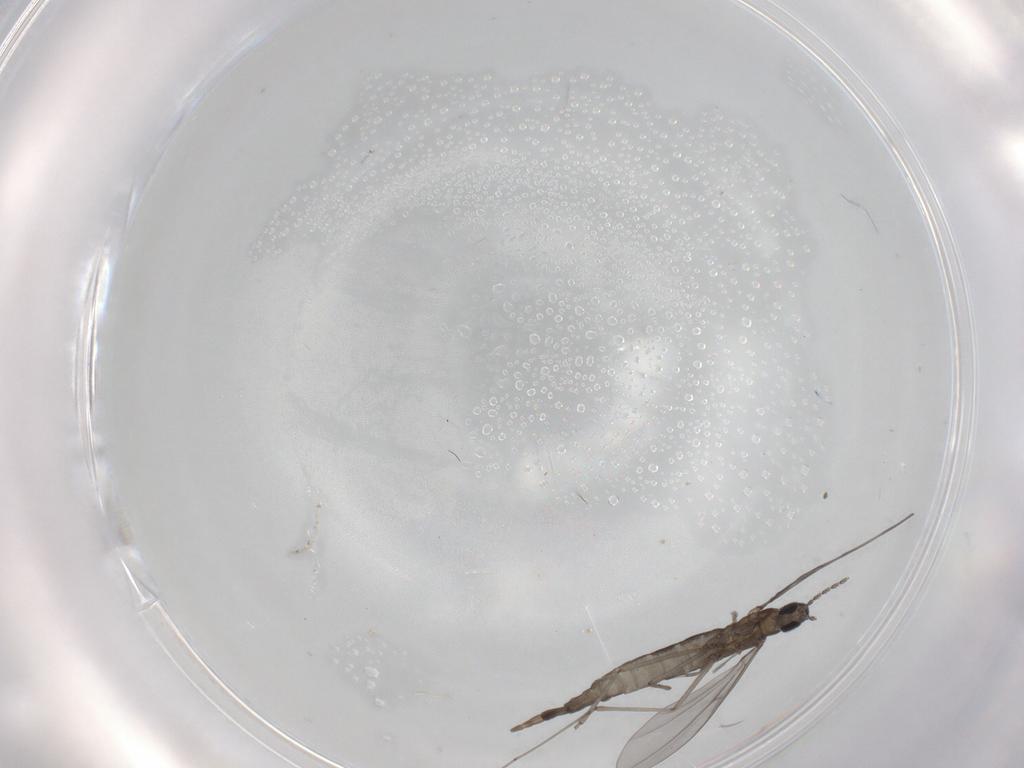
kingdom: Animalia
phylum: Arthropoda
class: Insecta
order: Diptera
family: Cecidomyiidae
